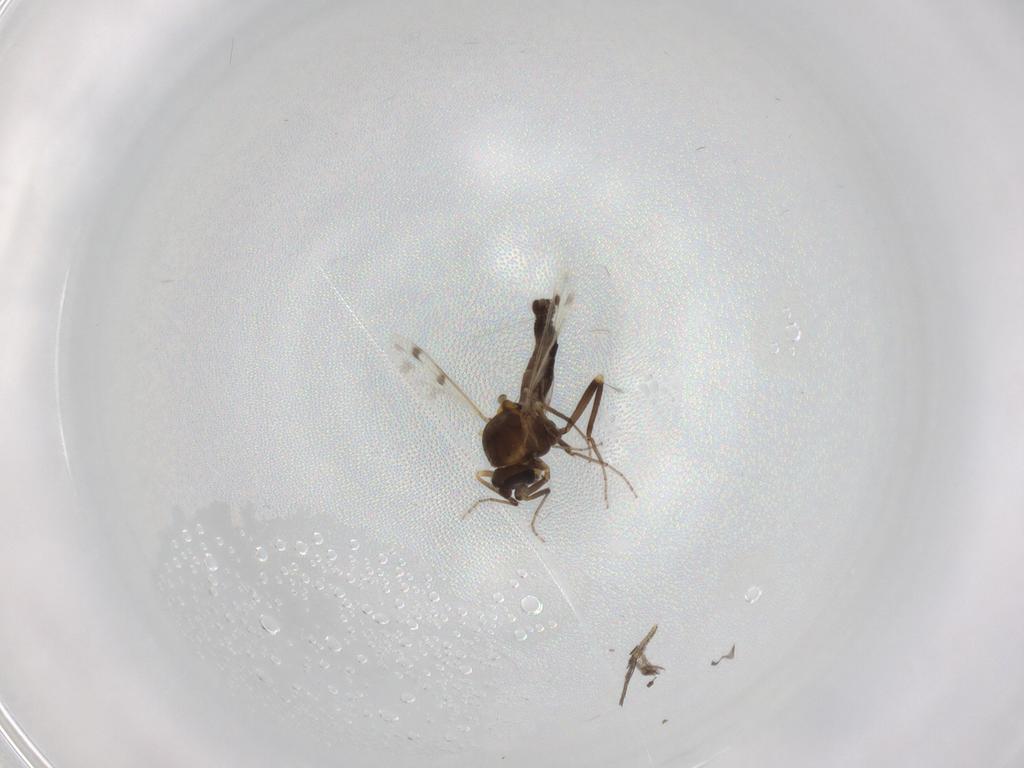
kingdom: Animalia
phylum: Arthropoda
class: Insecta
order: Diptera
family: Ceratopogonidae
